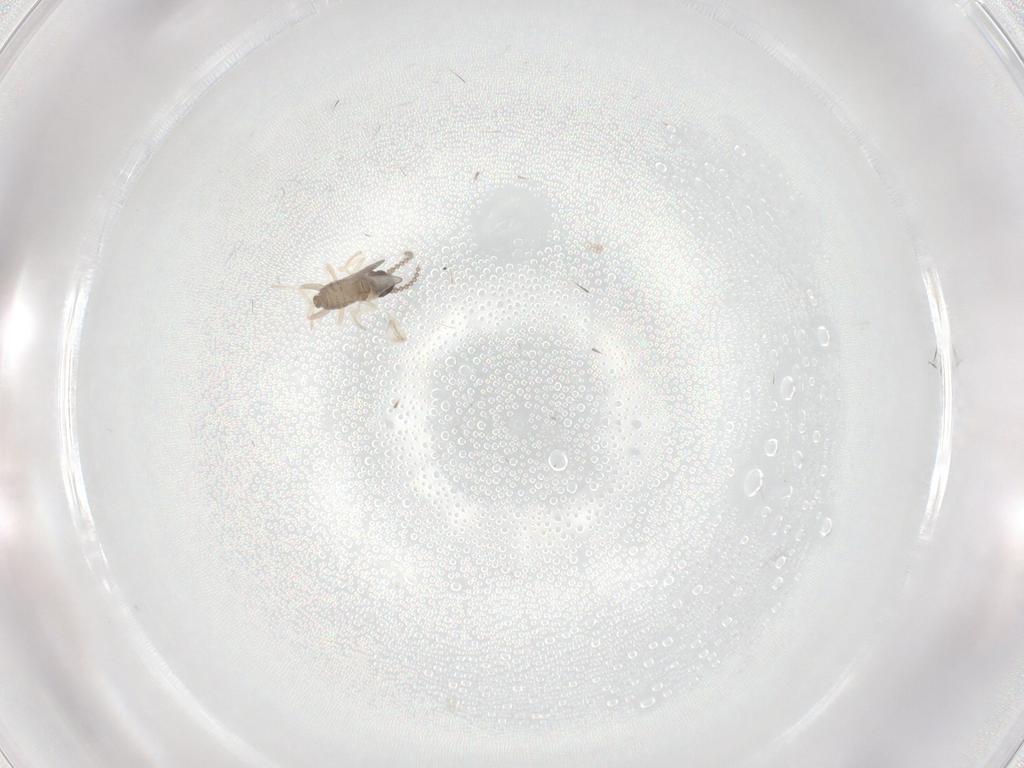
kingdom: Animalia
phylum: Arthropoda
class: Insecta
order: Diptera
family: Cecidomyiidae
